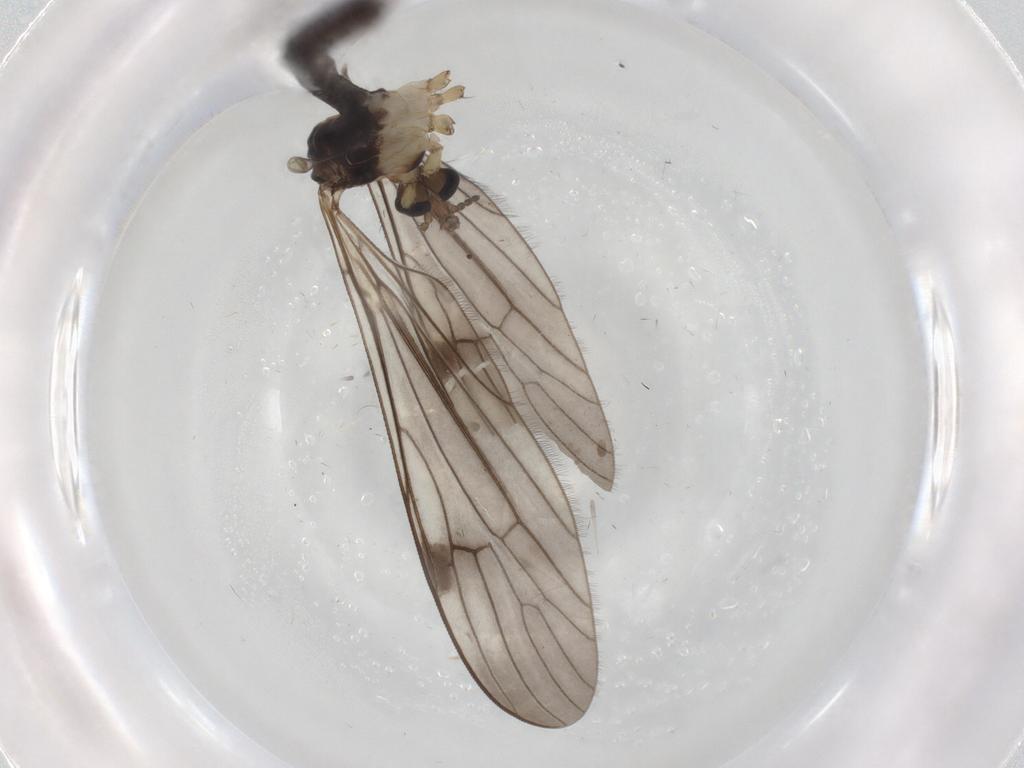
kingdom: Animalia
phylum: Arthropoda
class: Insecta
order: Diptera
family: Limoniidae
